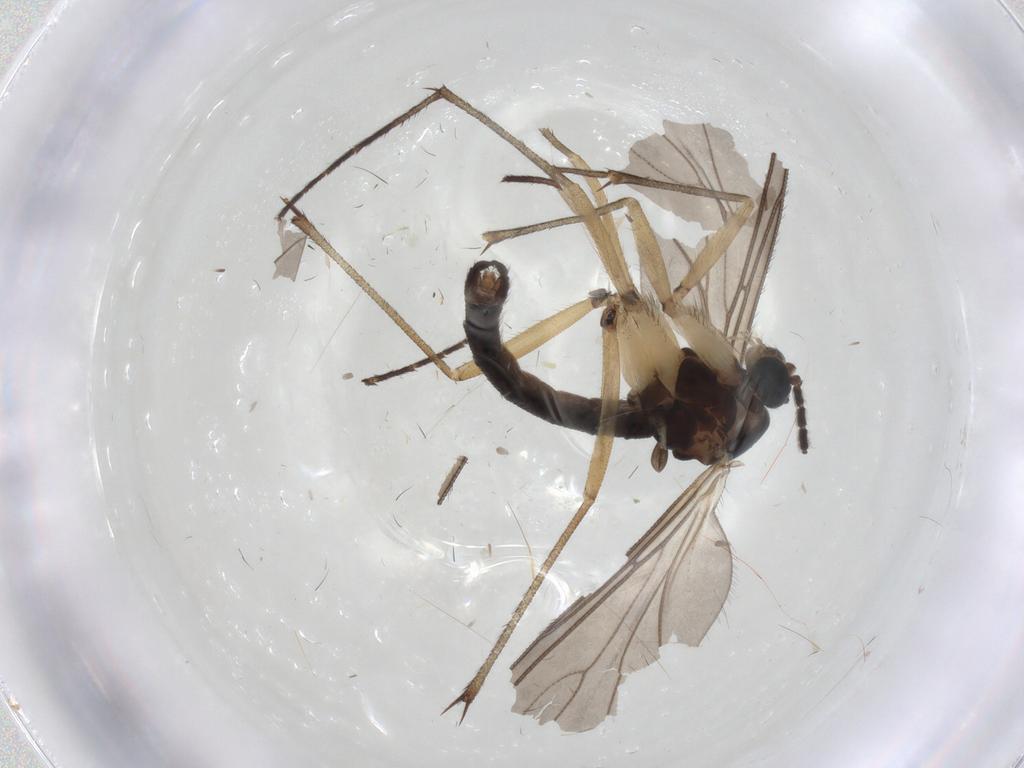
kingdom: Animalia
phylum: Arthropoda
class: Insecta
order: Diptera
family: Sciaridae
